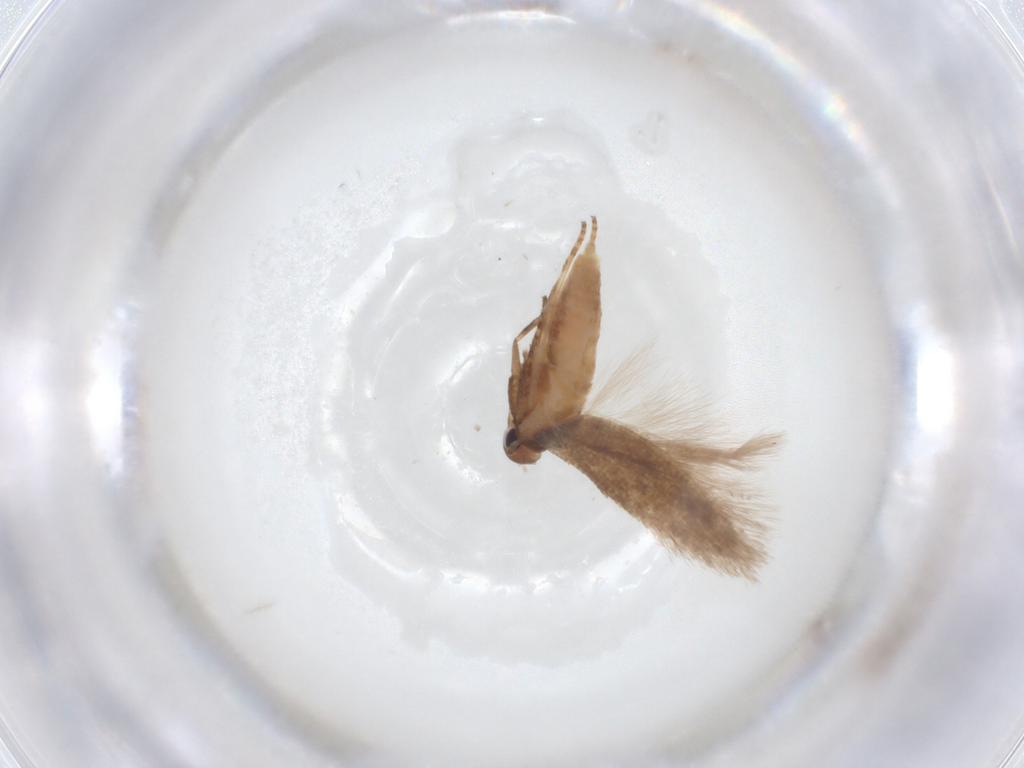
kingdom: Animalia
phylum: Arthropoda
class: Insecta
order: Lepidoptera
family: Gelechiidae
